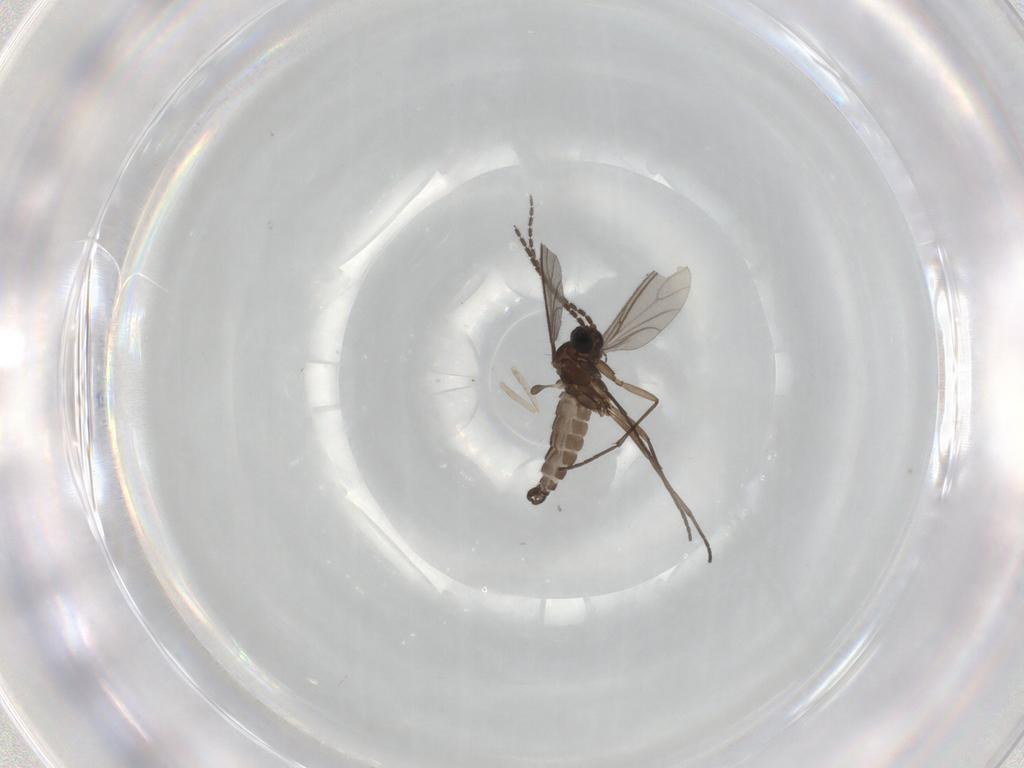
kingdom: Animalia
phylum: Arthropoda
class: Insecta
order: Diptera
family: Sciaridae
